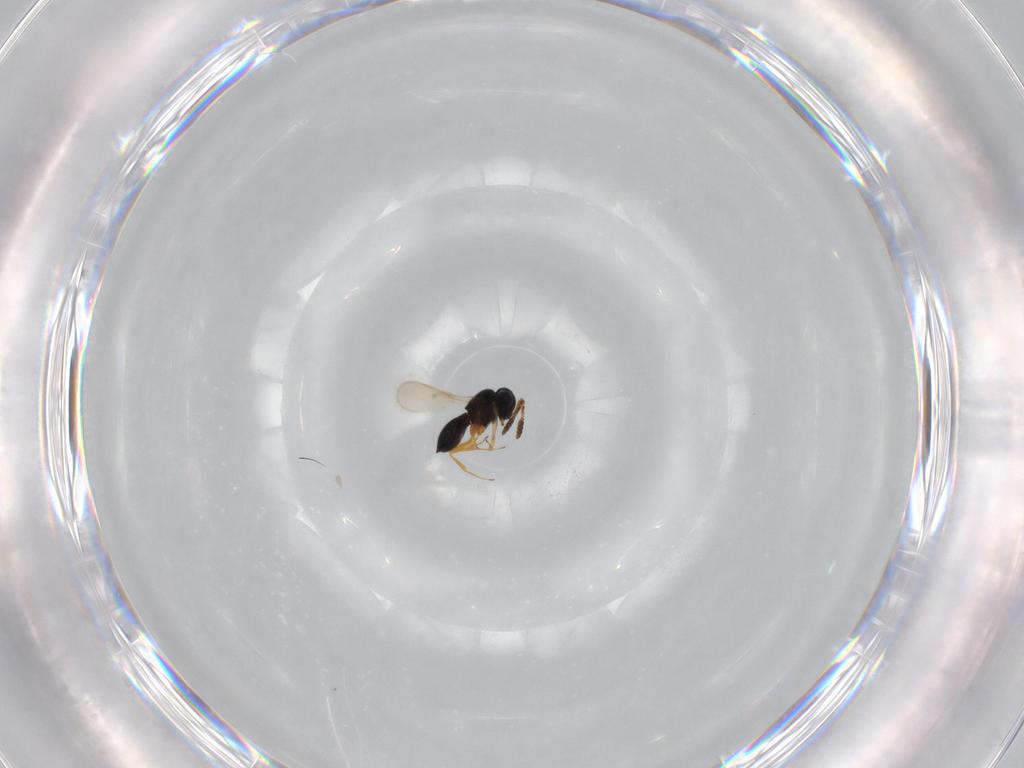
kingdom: Animalia
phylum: Arthropoda
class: Insecta
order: Hymenoptera
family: Scelionidae
